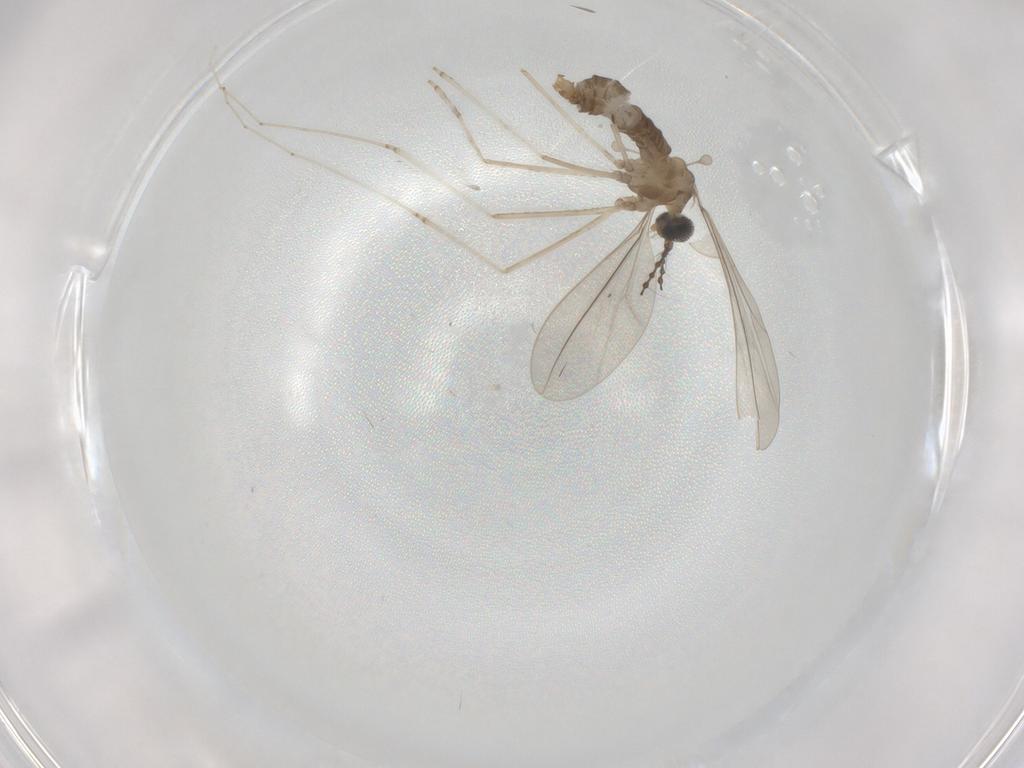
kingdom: Animalia
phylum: Arthropoda
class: Insecta
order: Diptera
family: Cecidomyiidae
